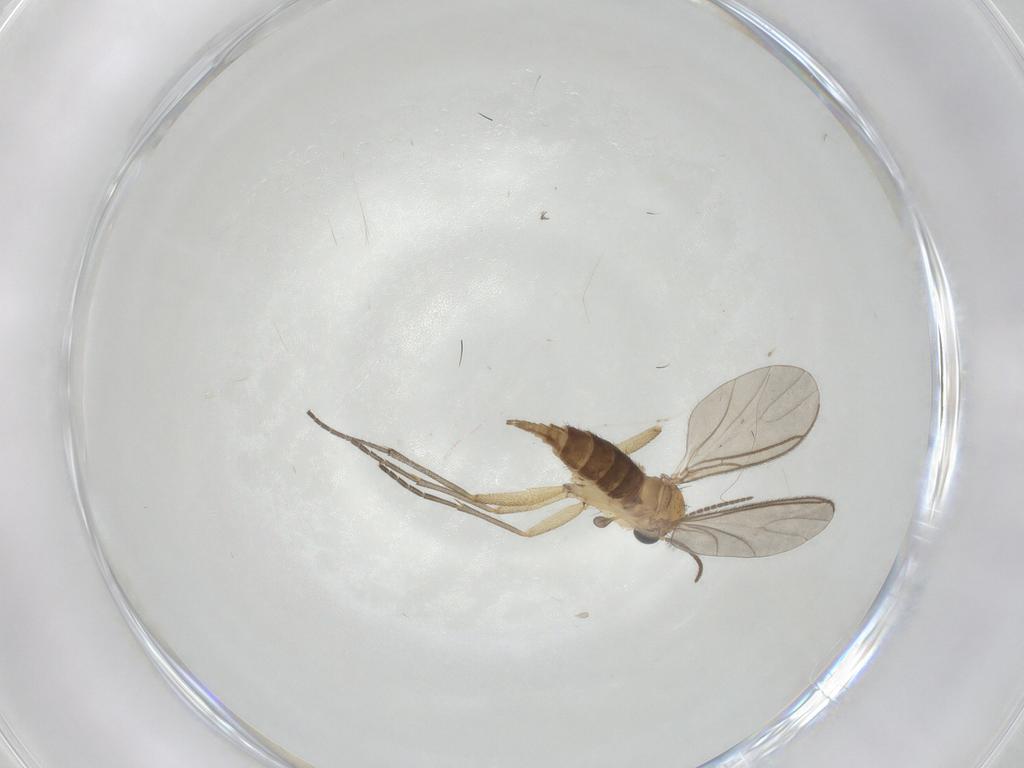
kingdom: Animalia
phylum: Arthropoda
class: Insecta
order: Diptera
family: Sciaridae
